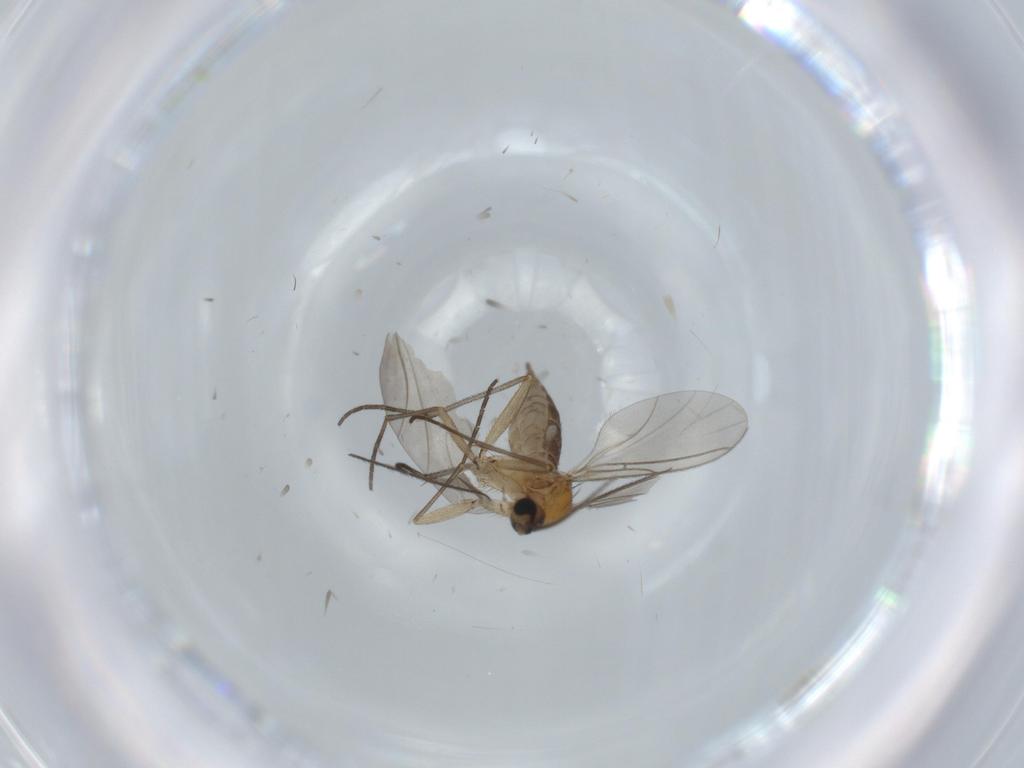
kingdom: Animalia
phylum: Arthropoda
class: Insecta
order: Diptera
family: Sciaridae
